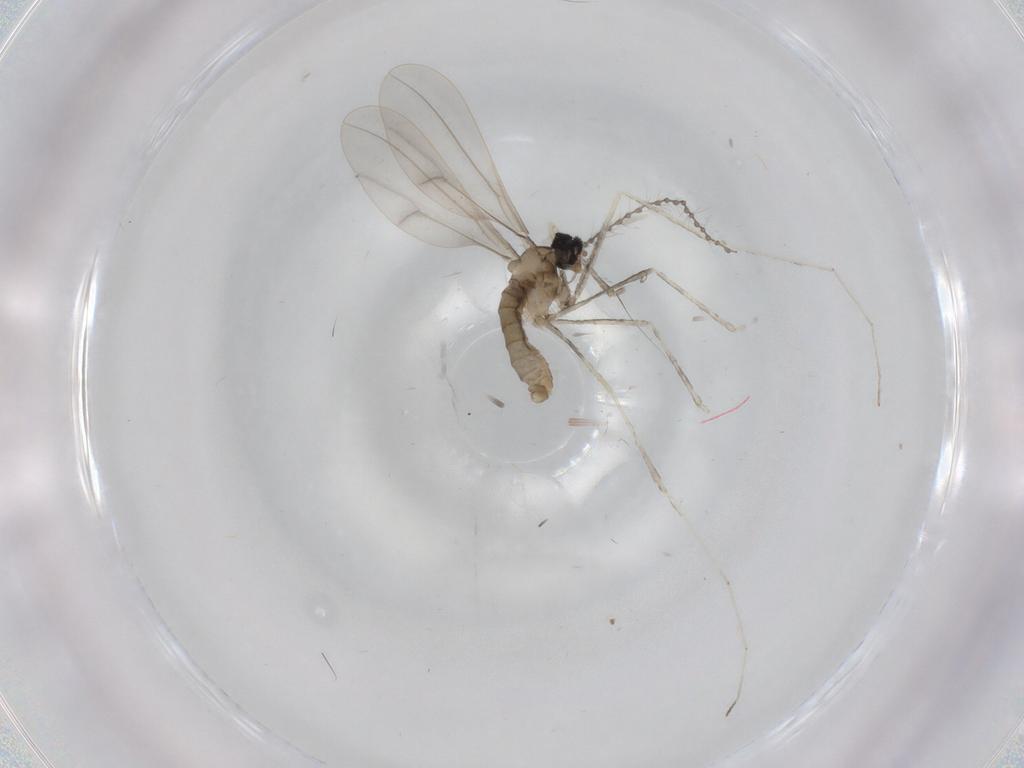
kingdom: Animalia
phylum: Arthropoda
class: Insecta
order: Diptera
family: Cecidomyiidae
